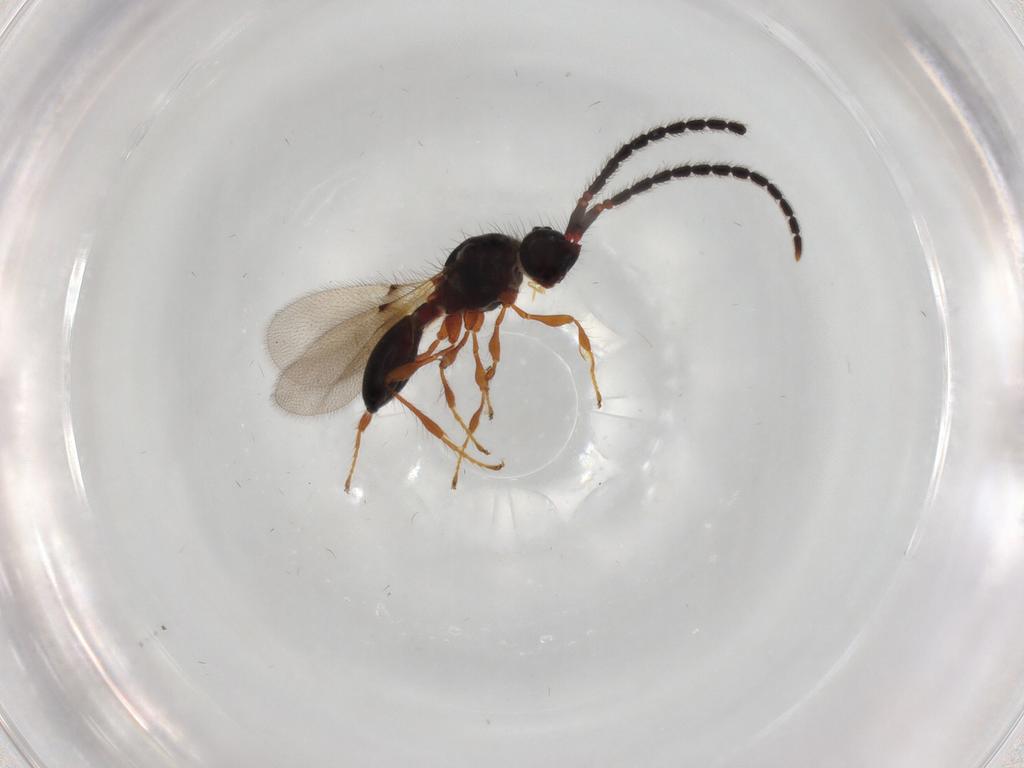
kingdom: Animalia
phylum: Arthropoda
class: Insecta
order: Hymenoptera
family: Diapriidae
